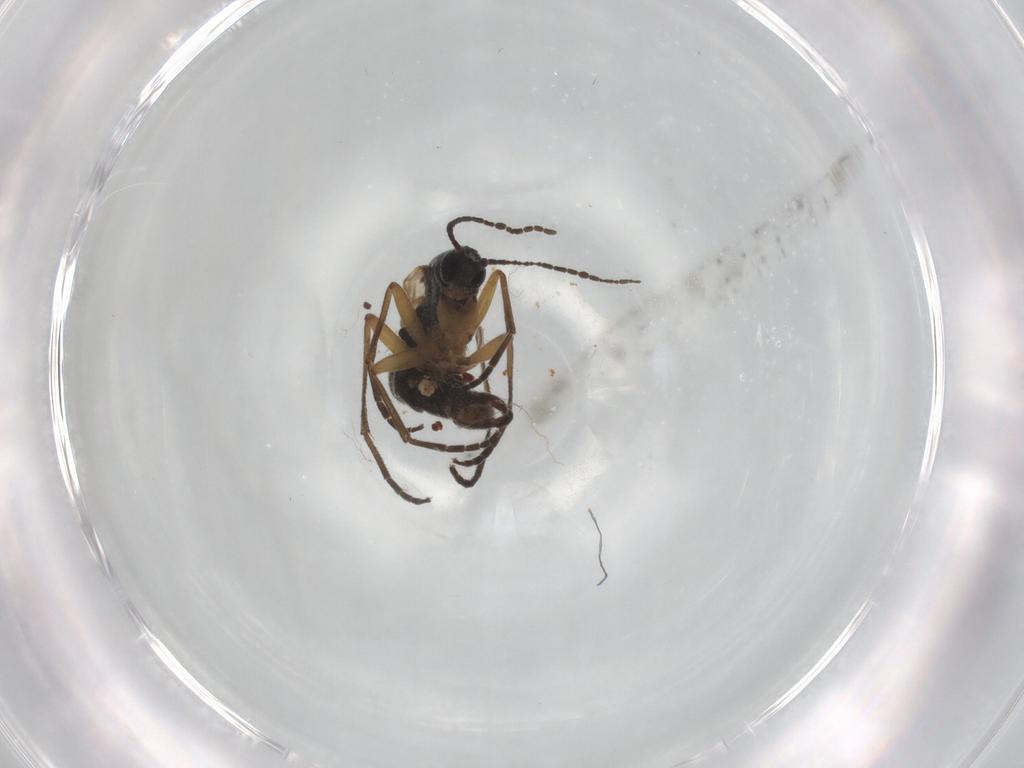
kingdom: Animalia
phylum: Arthropoda
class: Insecta
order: Diptera
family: Sciaridae
